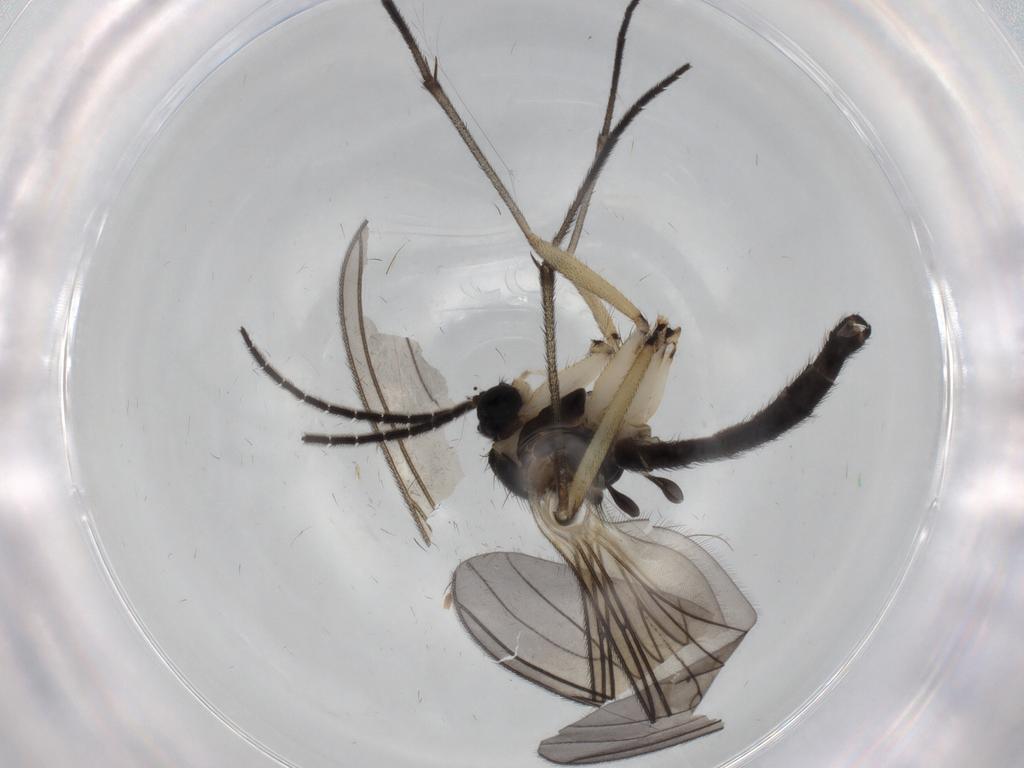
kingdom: Animalia
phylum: Arthropoda
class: Insecta
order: Diptera
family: Sciaridae
